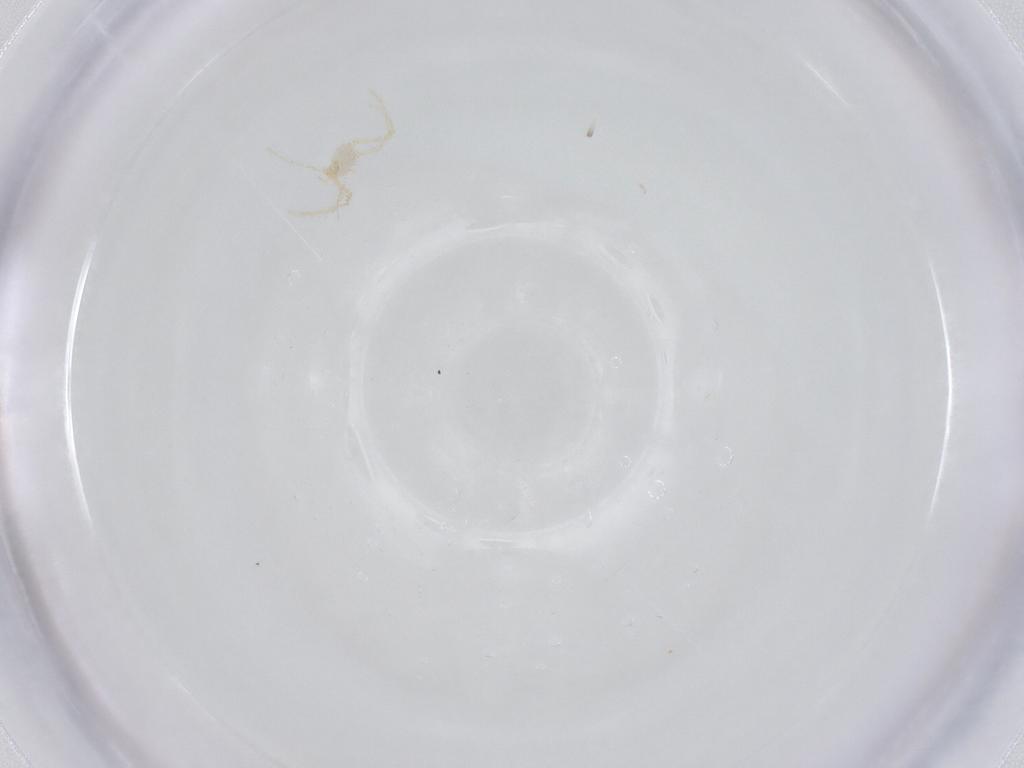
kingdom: Animalia
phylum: Arthropoda
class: Arachnida
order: Trombidiformes
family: Erythraeidae
